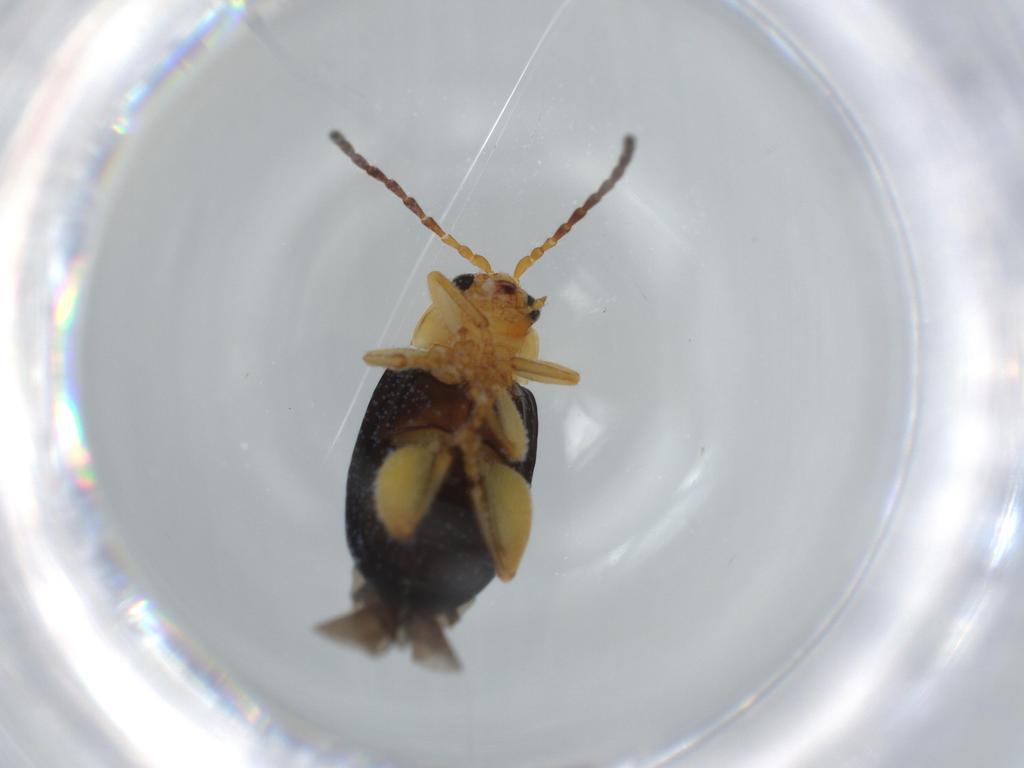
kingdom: Animalia
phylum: Arthropoda
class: Insecta
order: Coleoptera
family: Chrysomelidae
